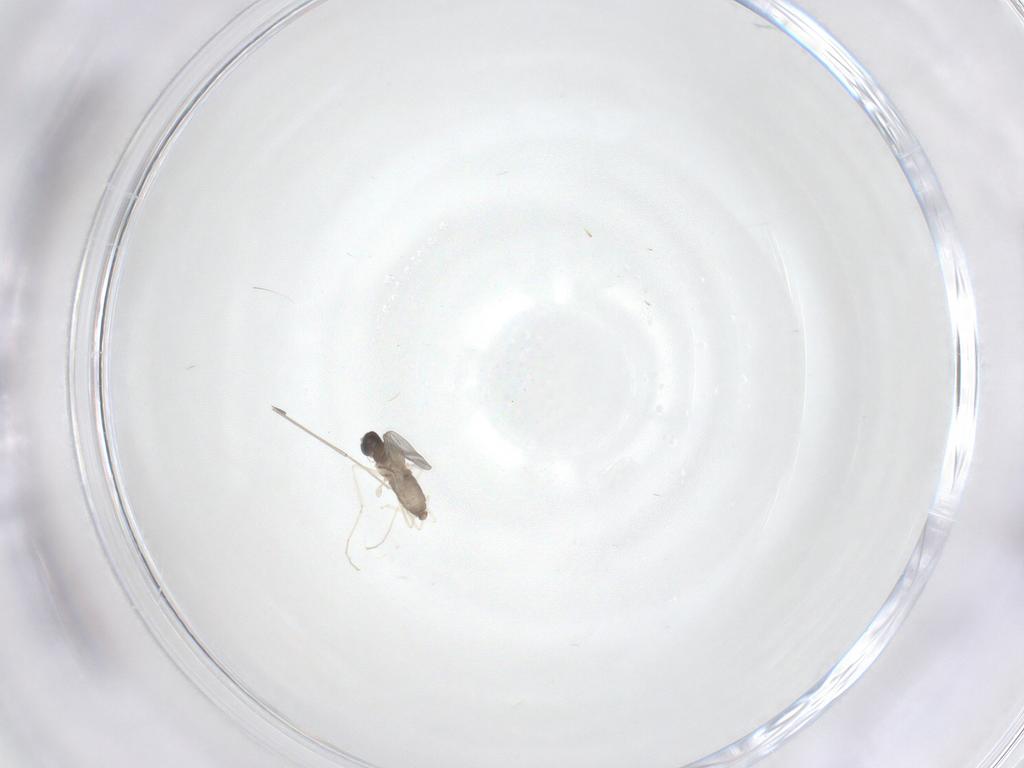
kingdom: Animalia
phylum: Arthropoda
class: Insecta
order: Diptera
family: Cecidomyiidae
